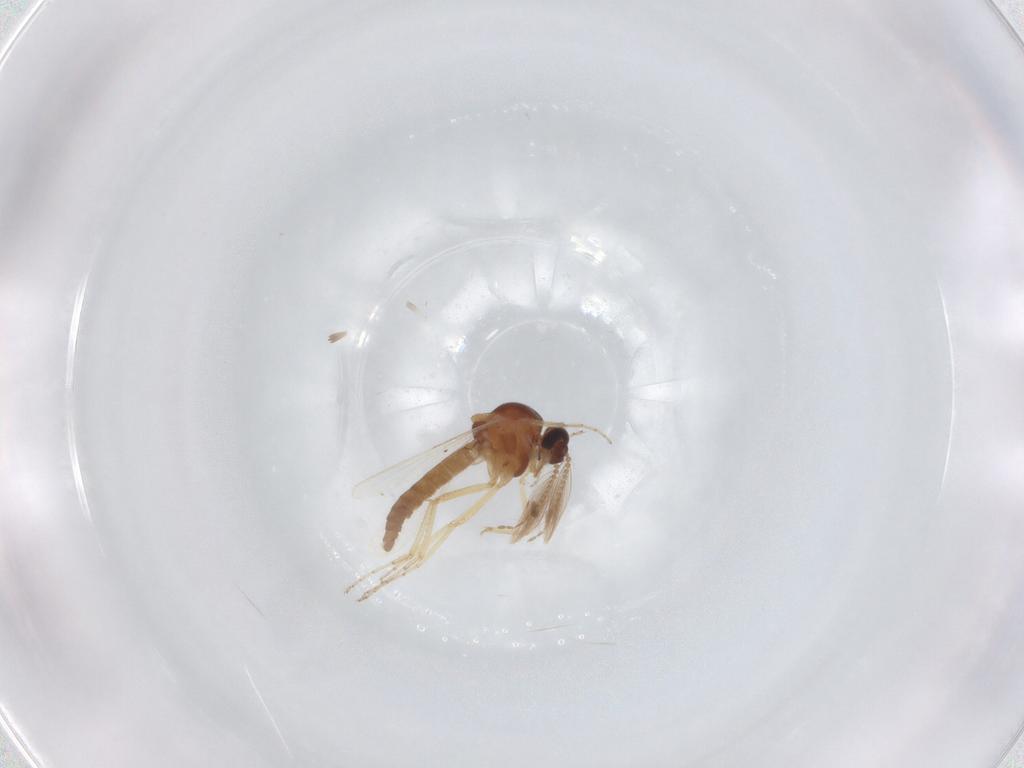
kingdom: Animalia
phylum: Arthropoda
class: Insecta
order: Diptera
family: Ceratopogonidae
